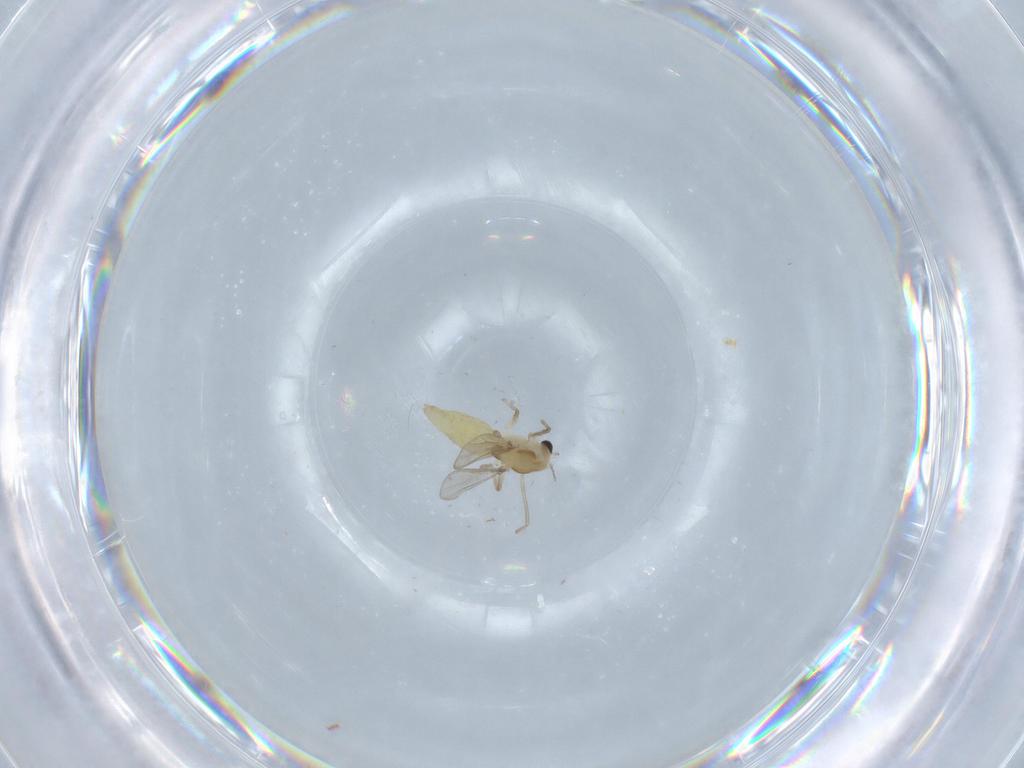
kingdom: Animalia
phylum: Arthropoda
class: Insecta
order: Diptera
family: Chironomidae
